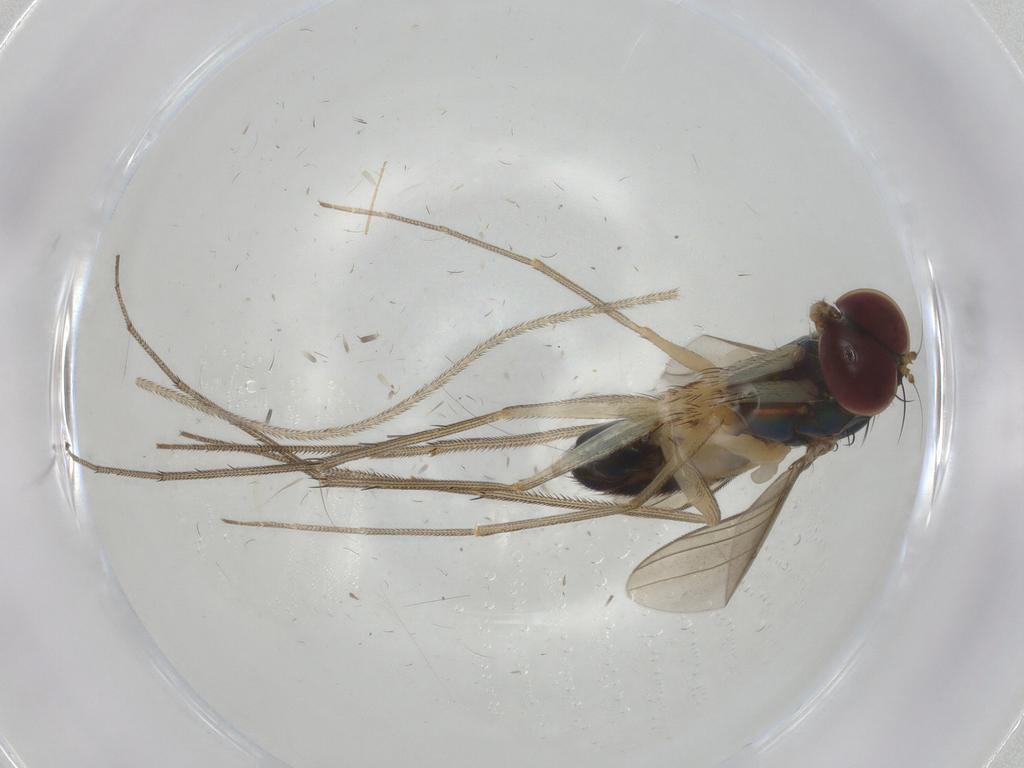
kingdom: Animalia
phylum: Arthropoda
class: Insecta
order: Diptera
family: Dolichopodidae
